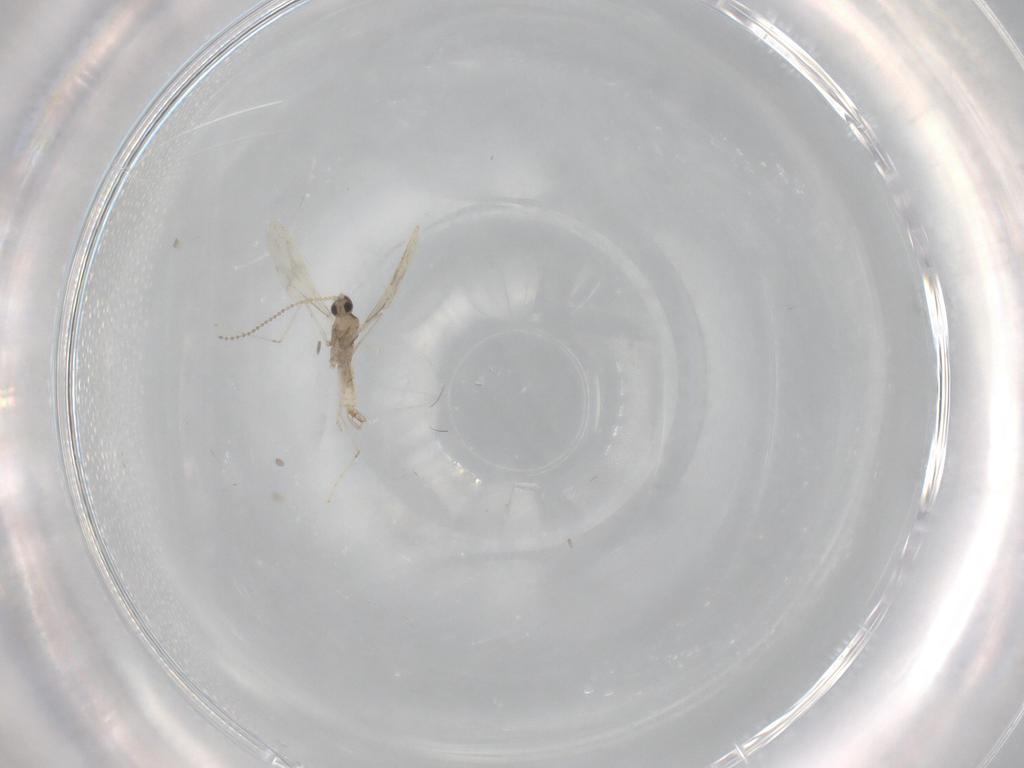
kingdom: Animalia
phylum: Arthropoda
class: Insecta
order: Diptera
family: Cecidomyiidae
